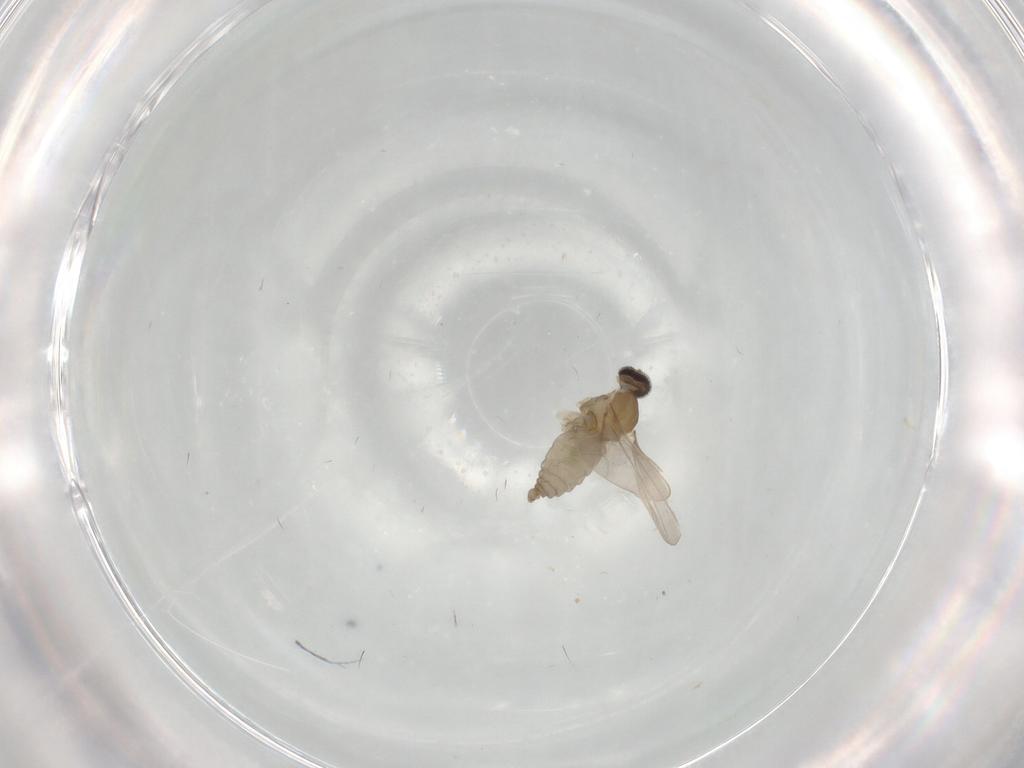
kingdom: Animalia
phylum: Arthropoda
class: Insecta
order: Diptera
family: Cecidomyiidae
